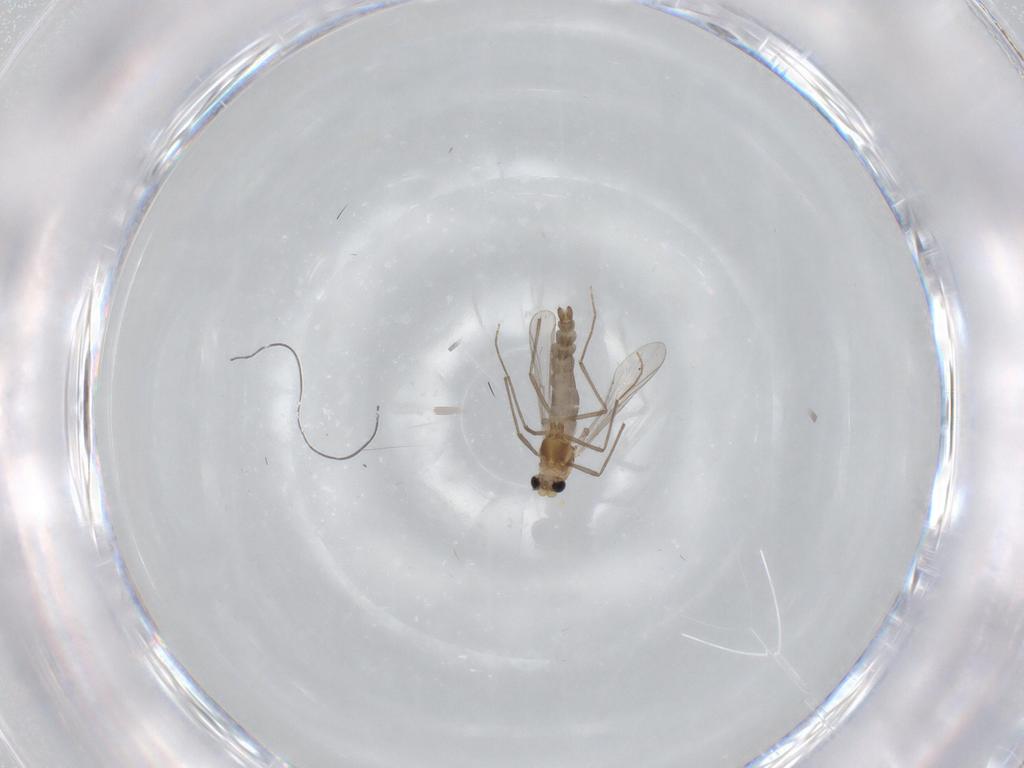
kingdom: Animalia
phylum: Arthropoda
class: Insecta
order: Diptera
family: Chironomidae
